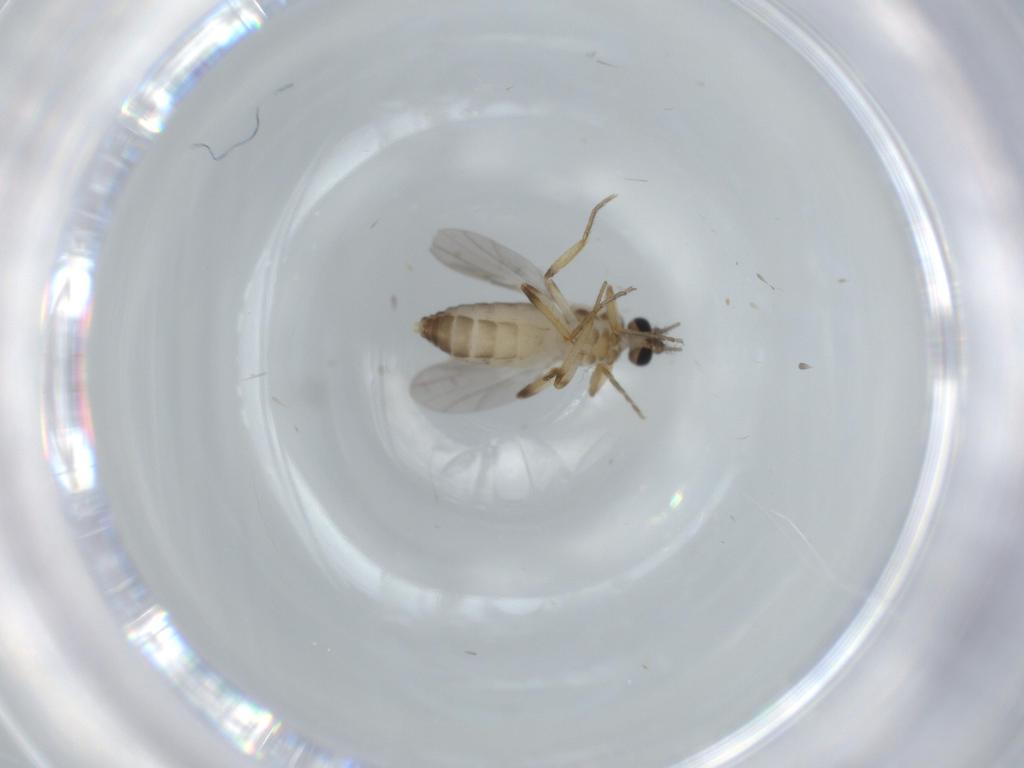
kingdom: Animalia
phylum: Arthropoda
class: Insecta
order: Diptera
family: Ceratopogonidae
